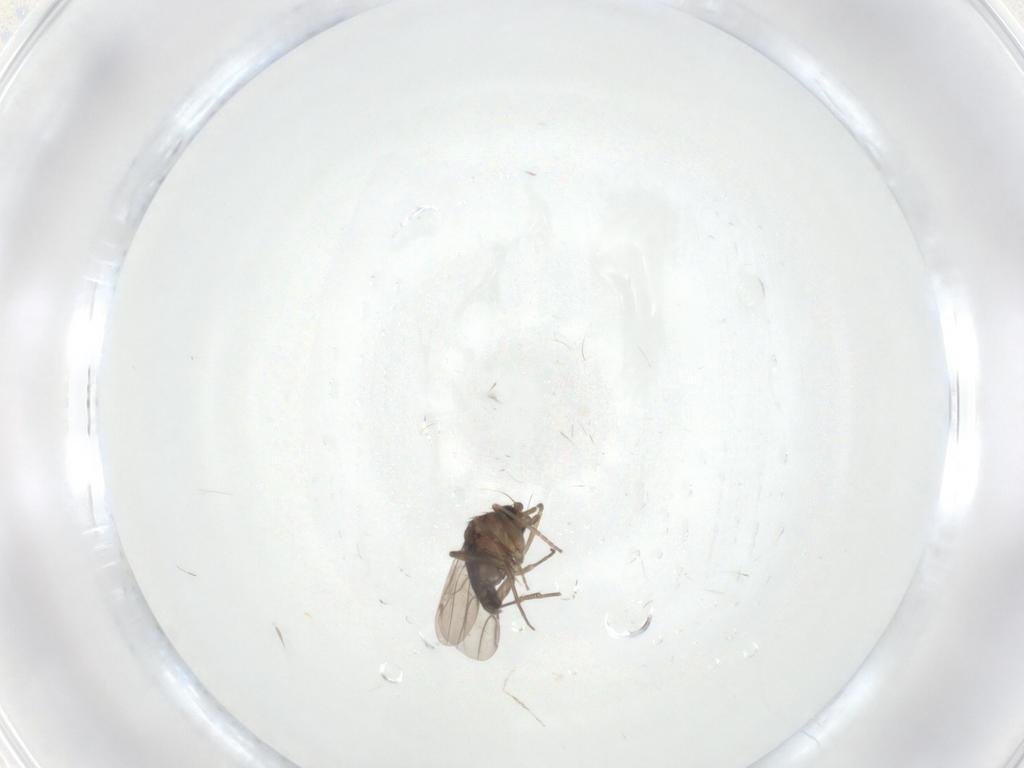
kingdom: Animalia
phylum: Arthropoda
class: Insecta
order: Diptera
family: Phoridae
